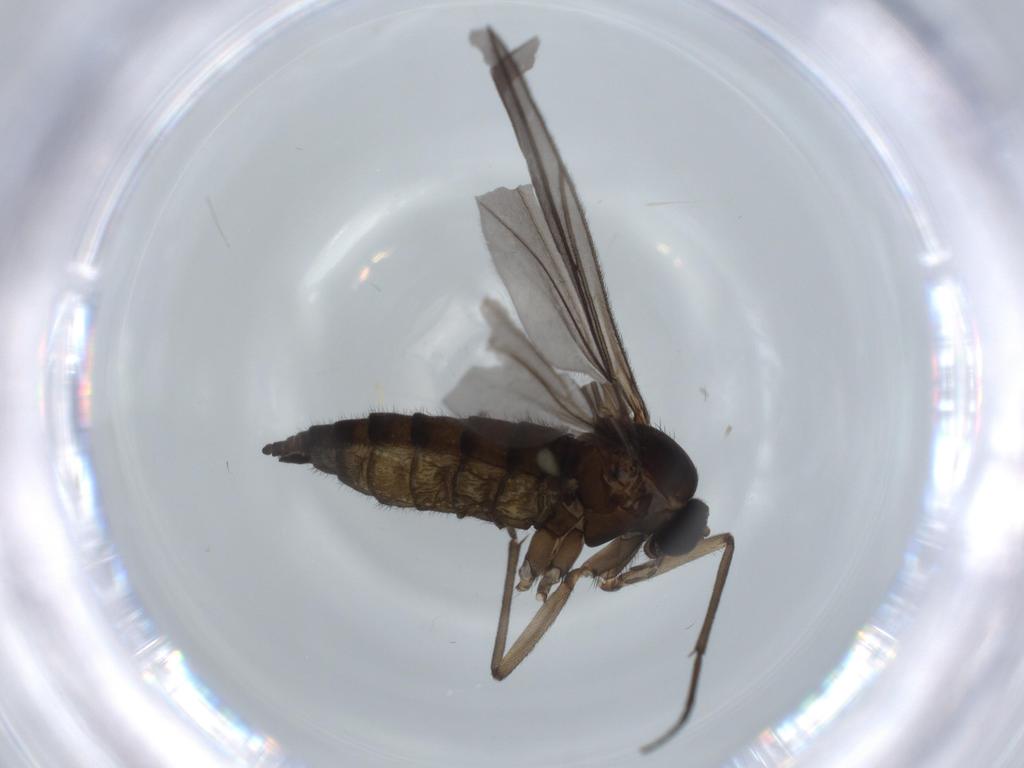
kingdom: Animalia
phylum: Arthropoda
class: Insecta
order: Diptera
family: Sciaridae
